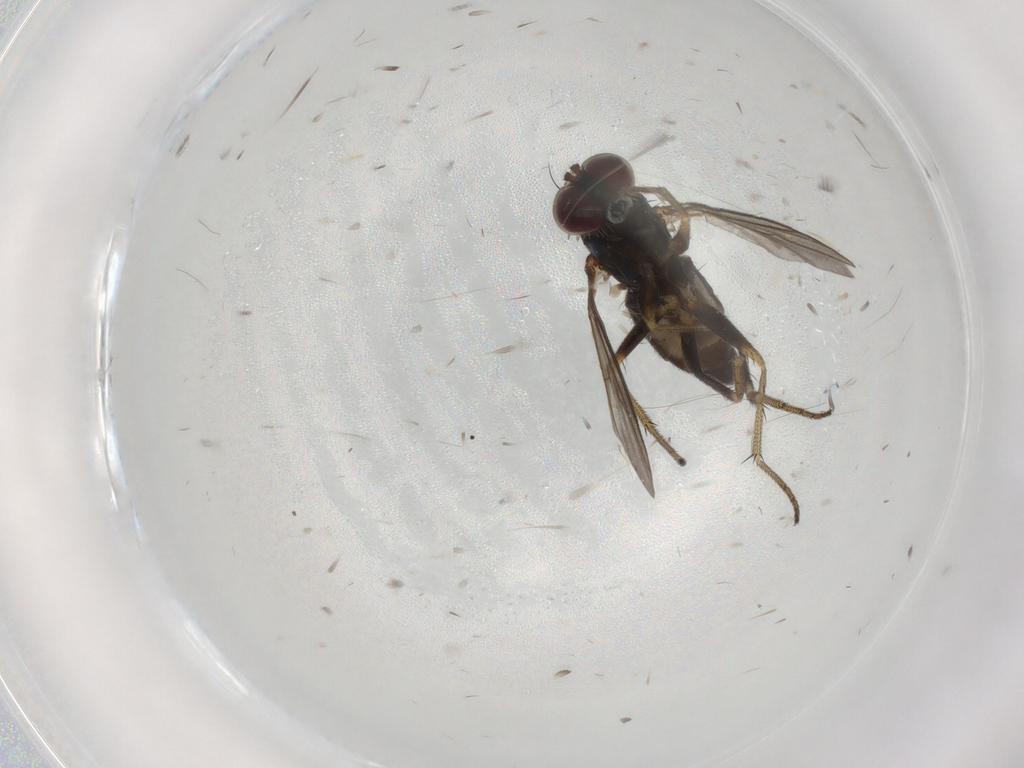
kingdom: Animalia
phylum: Arthropoda
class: Insecta
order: Diptera
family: Dolichopodidae
